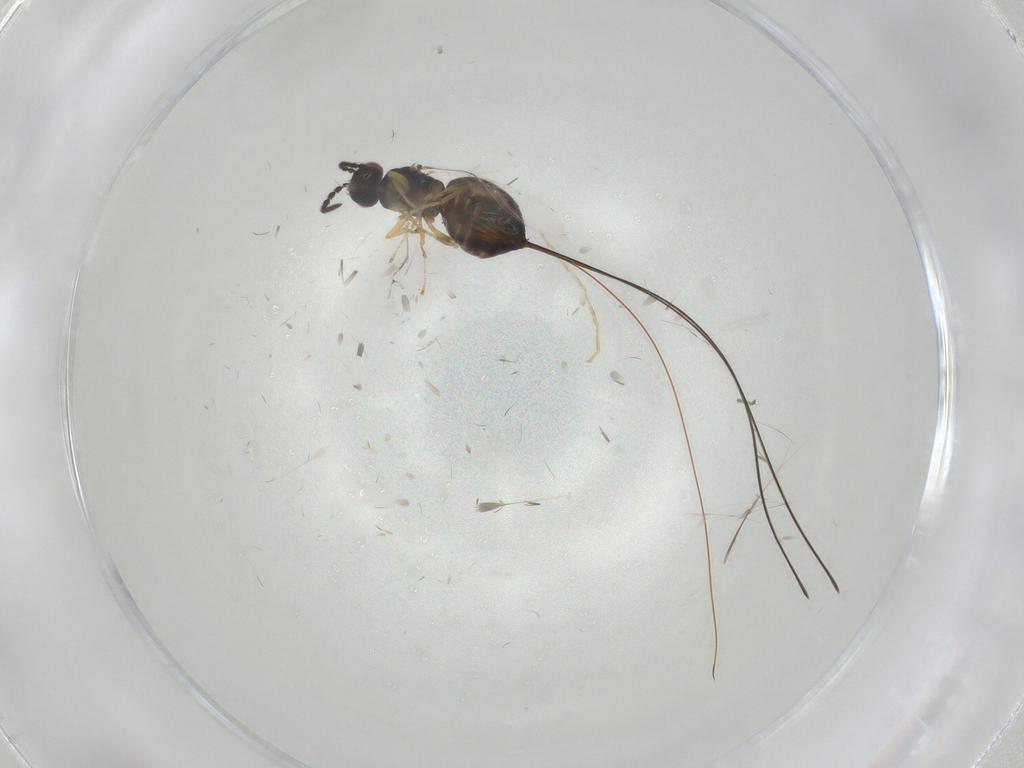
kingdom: Animalia
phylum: Arthropoda
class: Insecta
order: Hymenoptera
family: Pteromalidae
